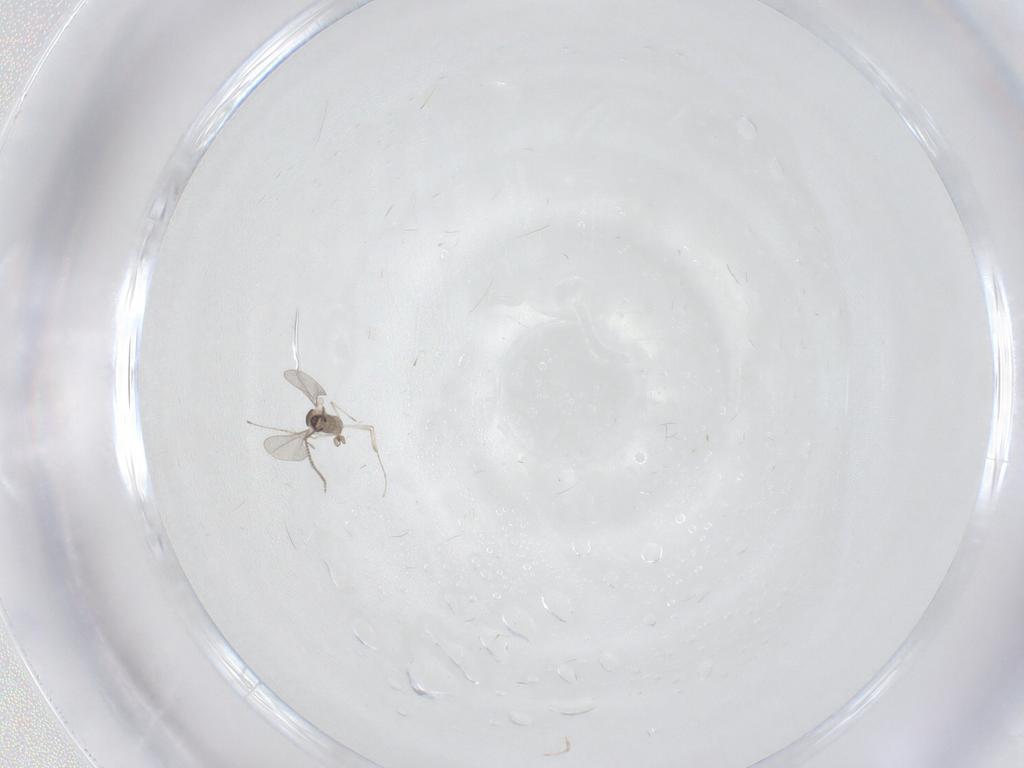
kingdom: Animalia
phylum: Arthropoda
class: Insecta
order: Diptera
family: Cecidomyiidae
